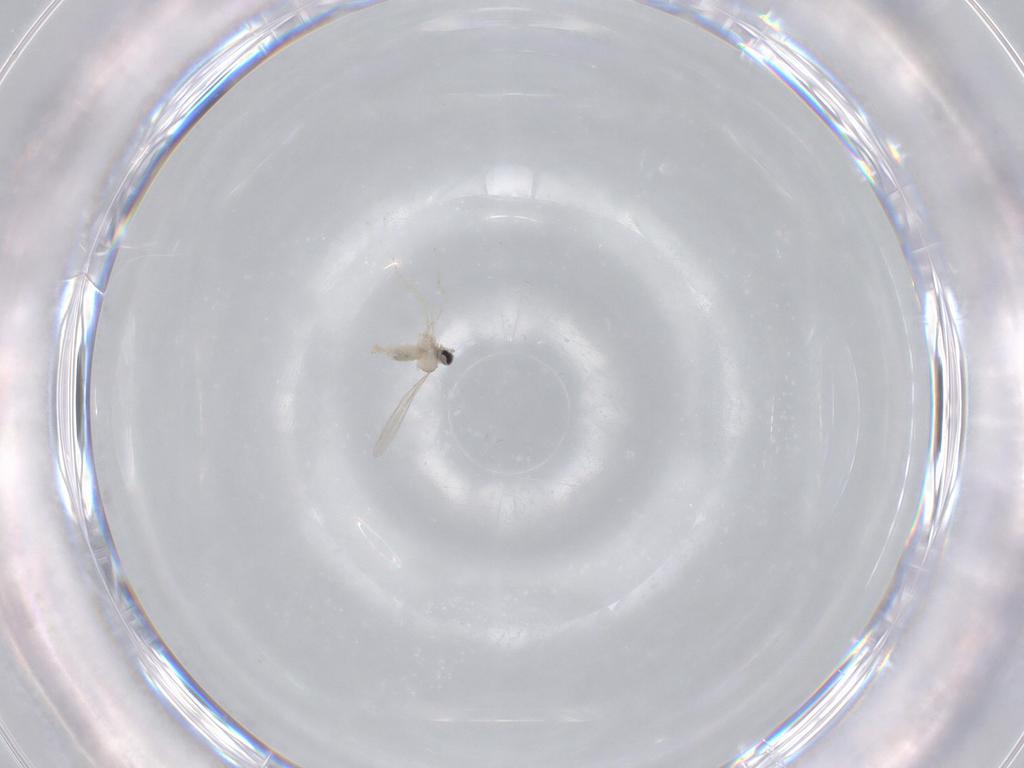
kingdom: Animalia
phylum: Arthropoda
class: Insecta
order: Diptera
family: Cecidomyiidae
